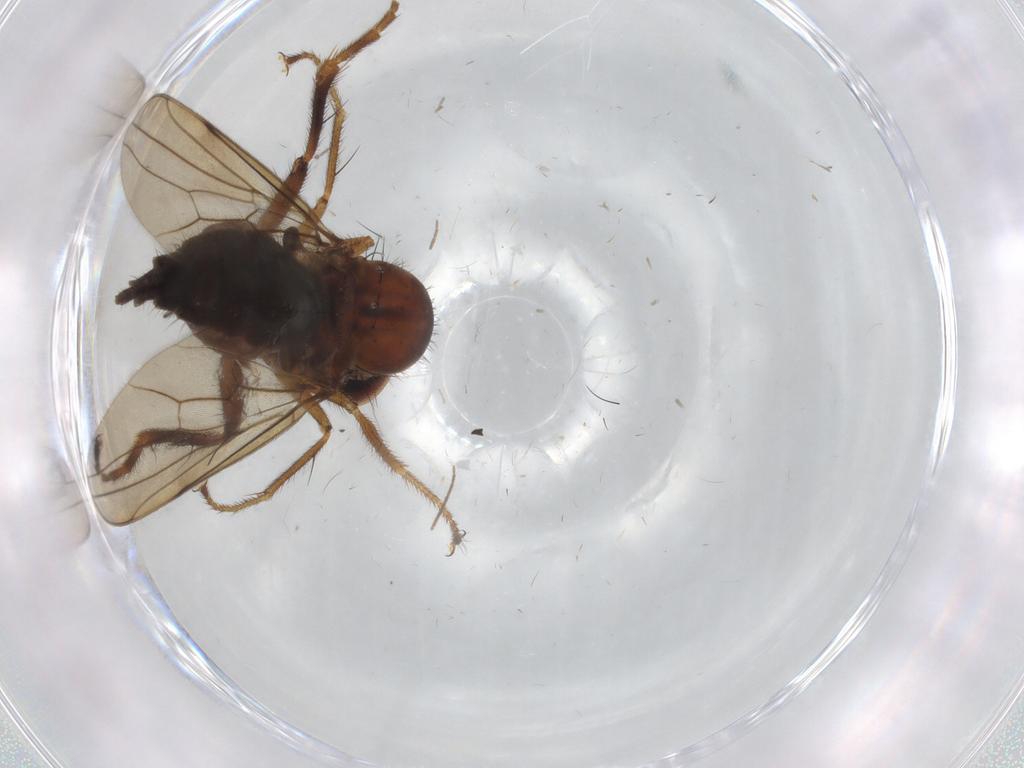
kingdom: Animalia
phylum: Arthropoda
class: Insecta
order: Diptera
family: Hybotidae
